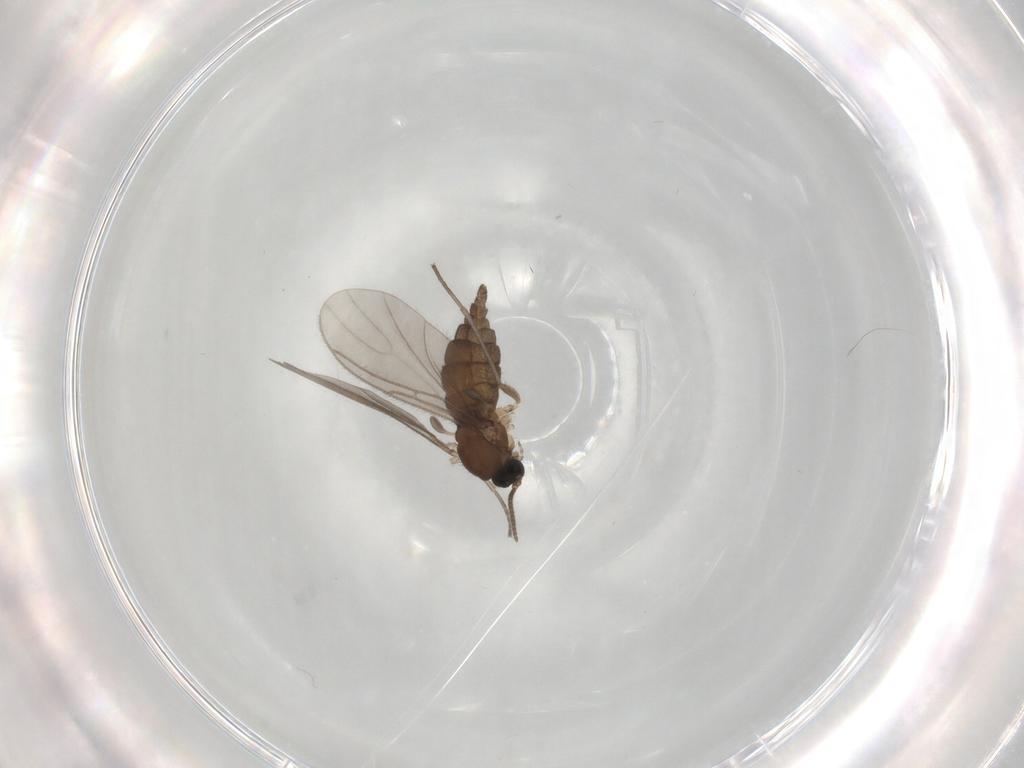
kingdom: Animalia
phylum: Arthropoda
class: Insecta
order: Diptera
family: Sciaridae
